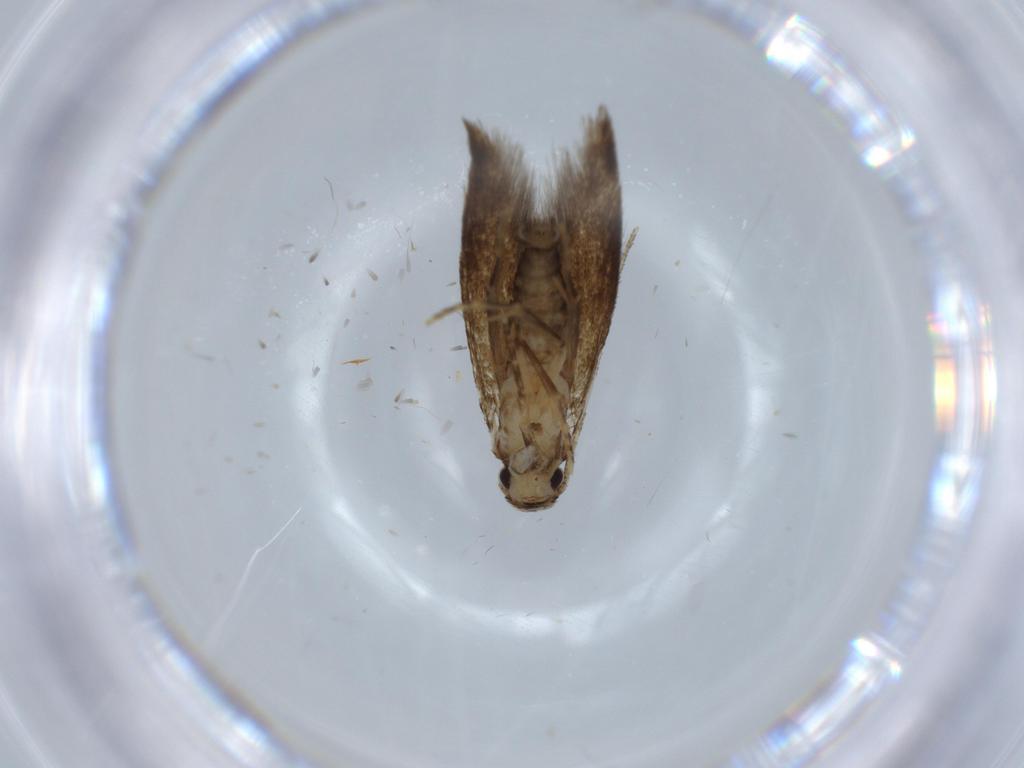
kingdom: Animalia
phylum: Arthropoda
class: Insecta
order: Lepidoptera
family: Tineidae
